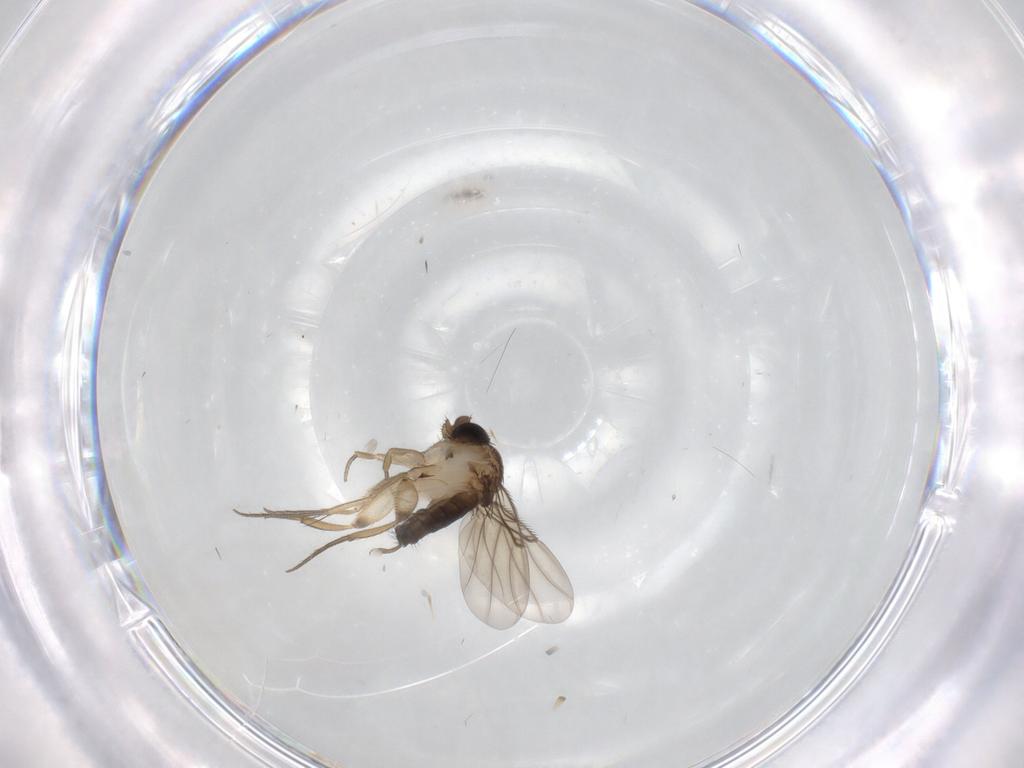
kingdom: Animalia
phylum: Arthropoda
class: Insecta
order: Diptera
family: Phoridae
